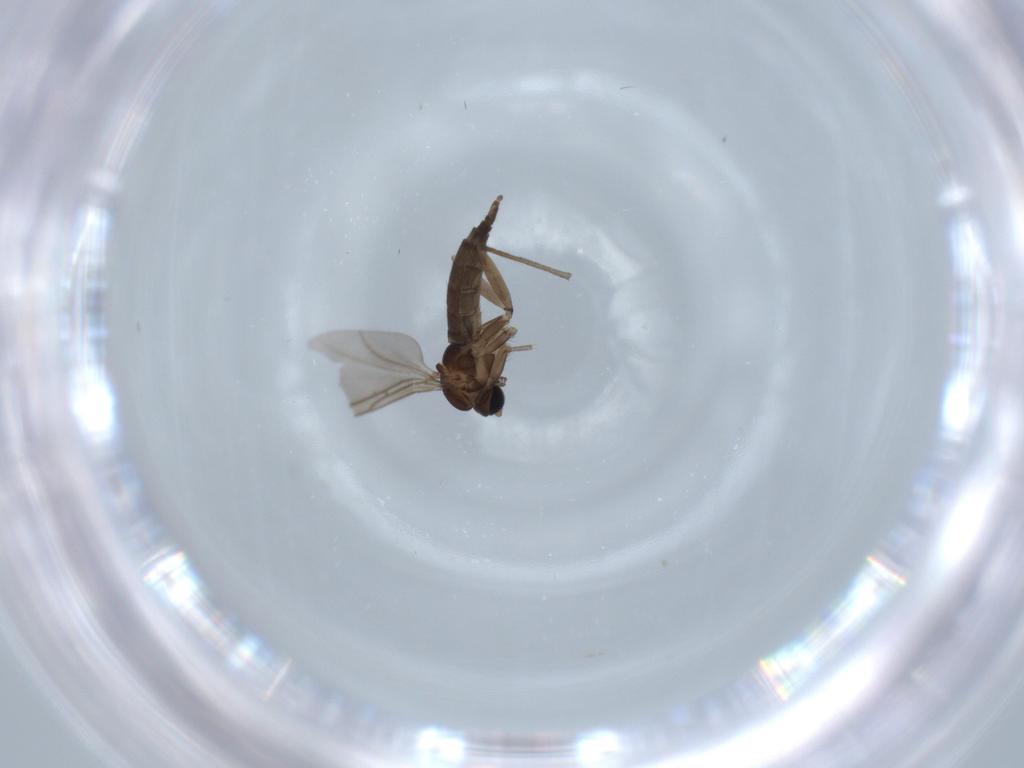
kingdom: Animalia
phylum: Arthropoda
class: Insecta
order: Diptera
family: Sciaridae
